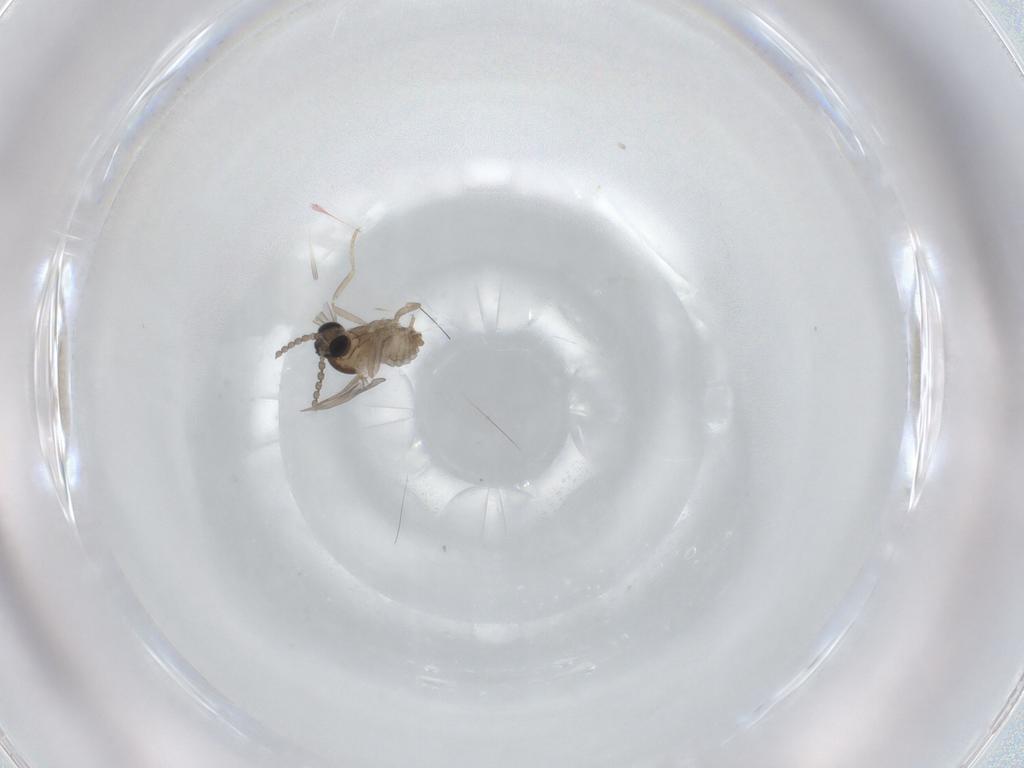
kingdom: Animalia
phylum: Arthropoda
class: Insecta
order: Diptera
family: Cecidomyiidae
